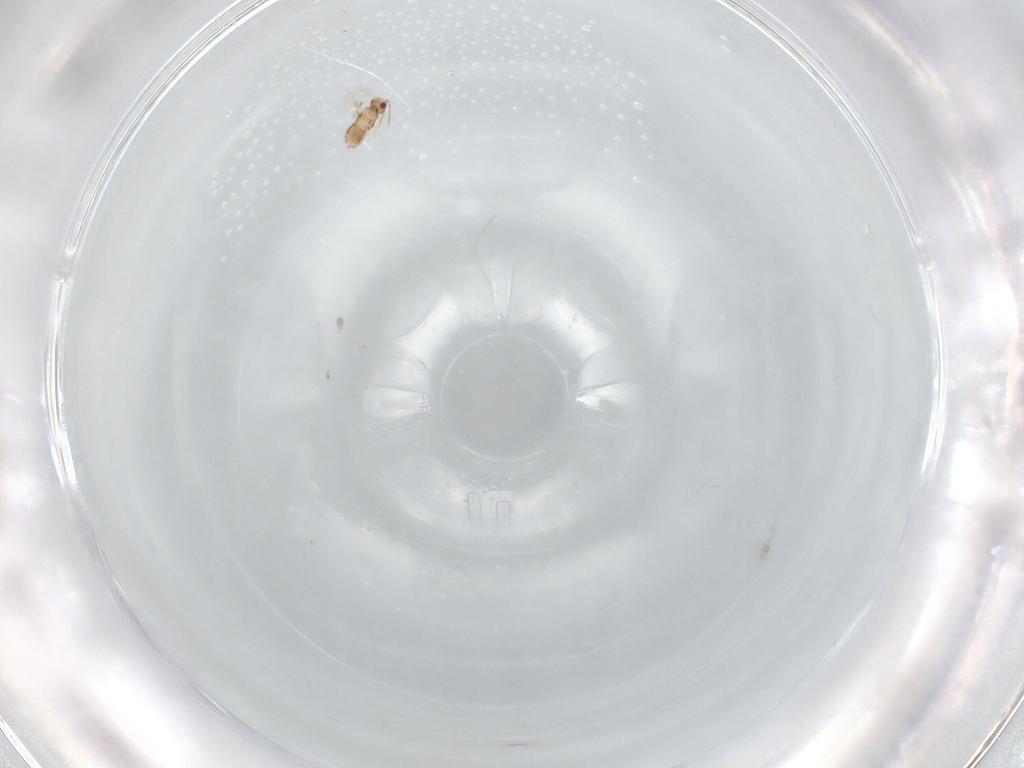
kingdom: Animalia
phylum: Arthropoda
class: Insecta
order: Hymenoptera
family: Aphelinidae
